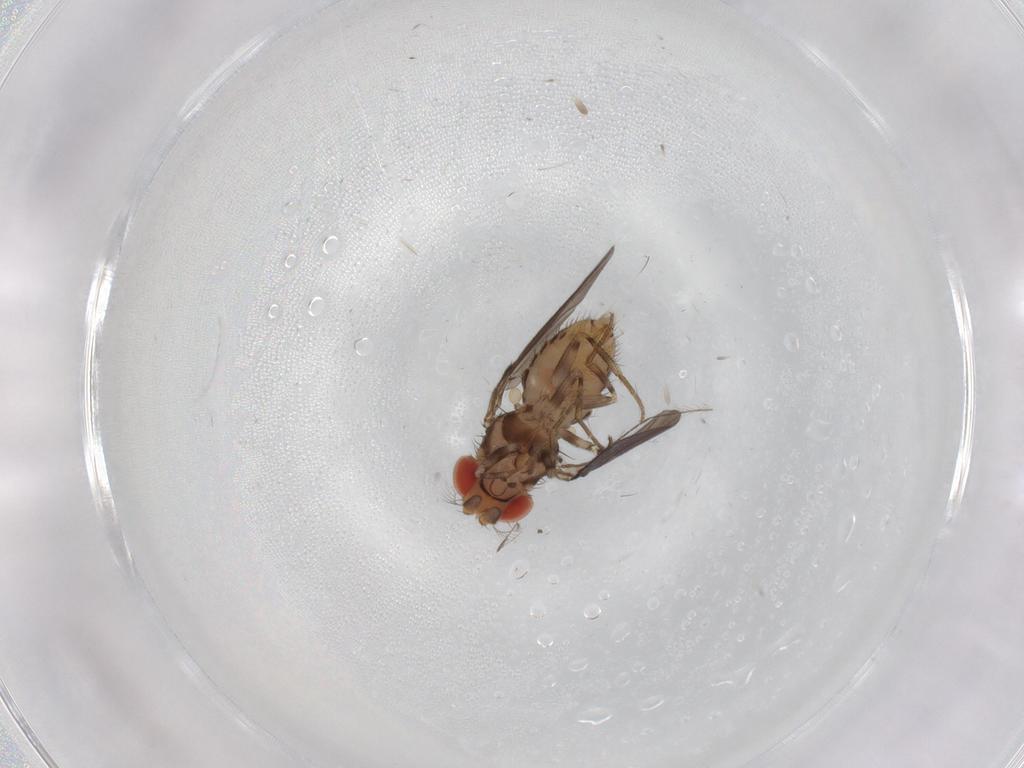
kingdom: Animalia
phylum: Arthropoda
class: Insecta
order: Diptera
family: Drosophilidae
